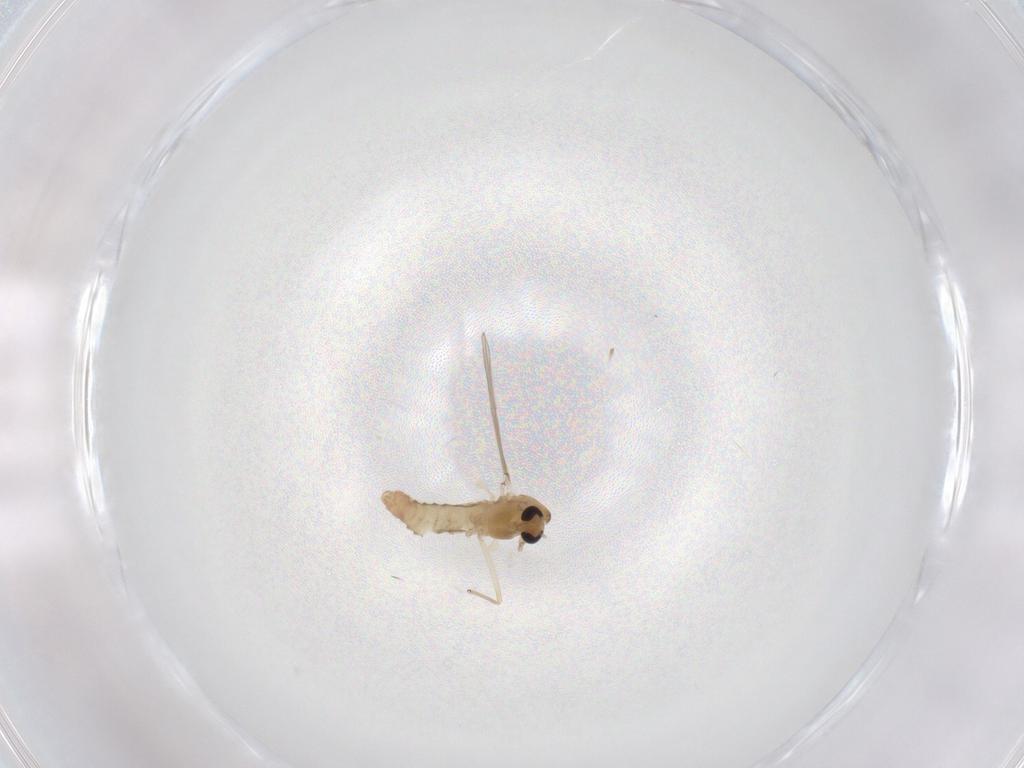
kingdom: Animalia
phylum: Arthropoda
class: Insecta
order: Diptera
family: Chironomidae
